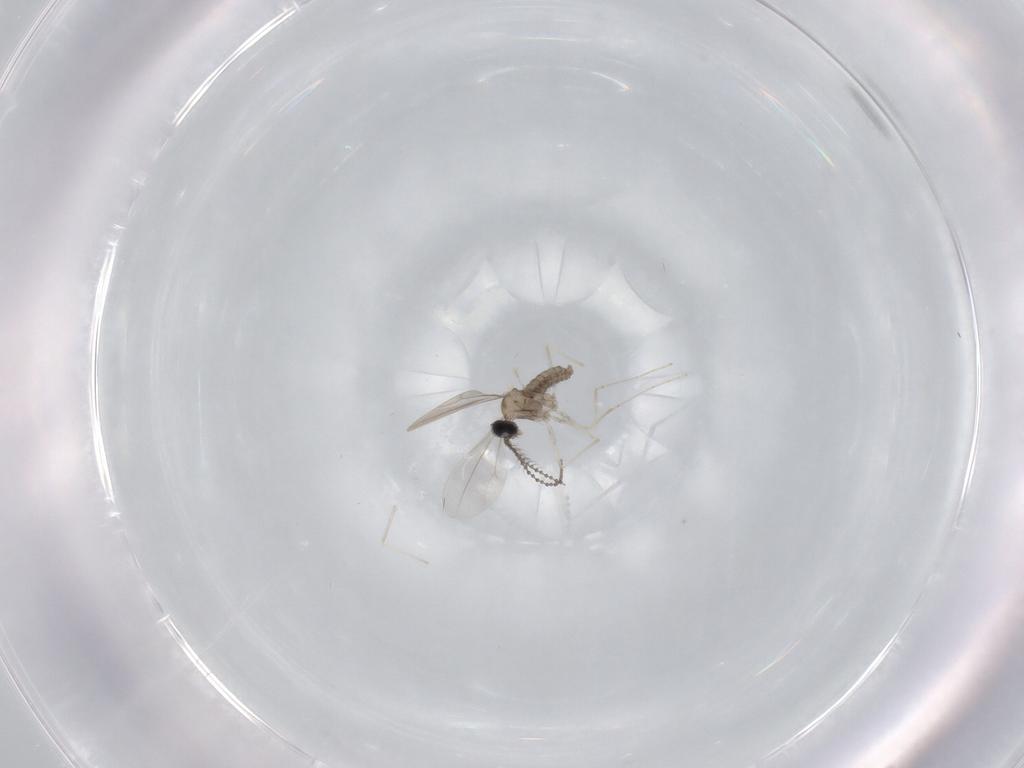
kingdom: Animalia
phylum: Arthropoda
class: Insecta
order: Diptera
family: Cecidomyiidae
